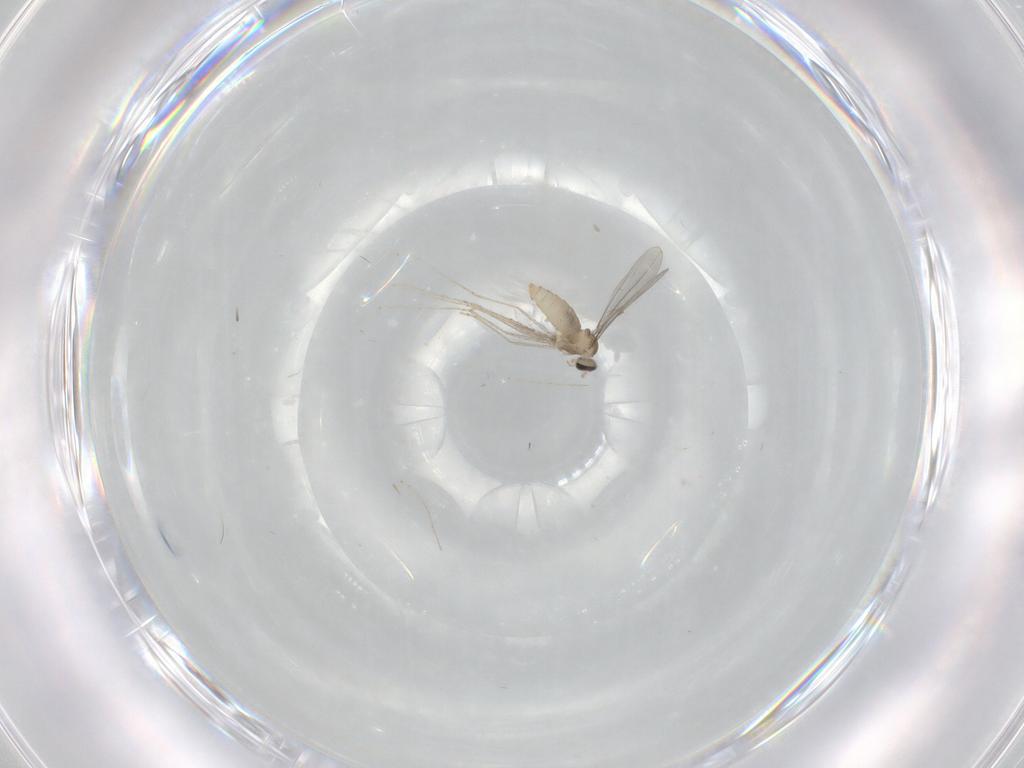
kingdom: Animalia
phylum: Arthropoda
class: Insecta
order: Diptera
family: Cecidomyiidae
